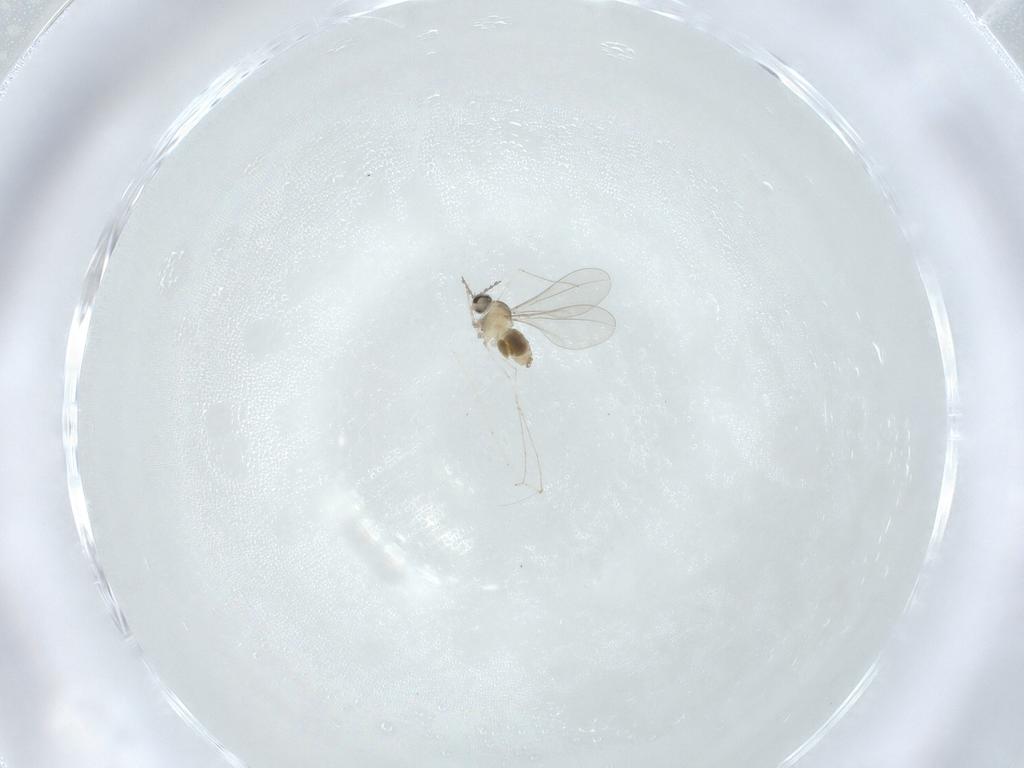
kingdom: Animalia
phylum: Arthropoda
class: Insecta
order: Diptera
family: Cecidomyiidae
